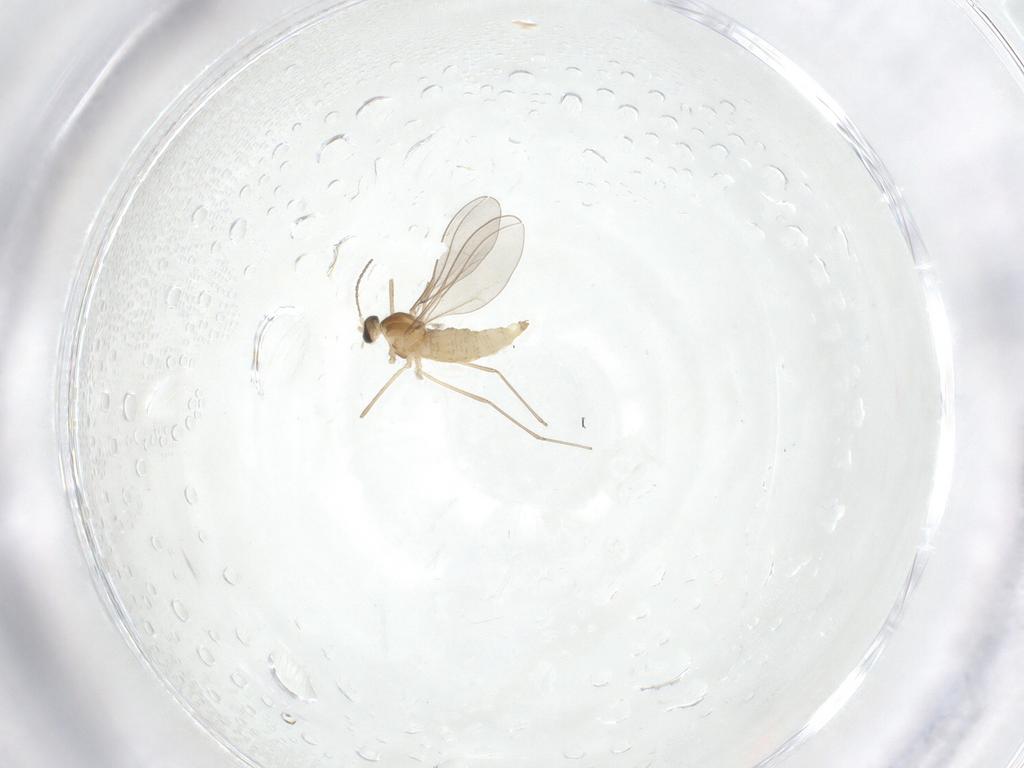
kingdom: Animalia
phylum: Arthropoda
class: Insecta
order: Diptera
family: Cecidomyiidae
